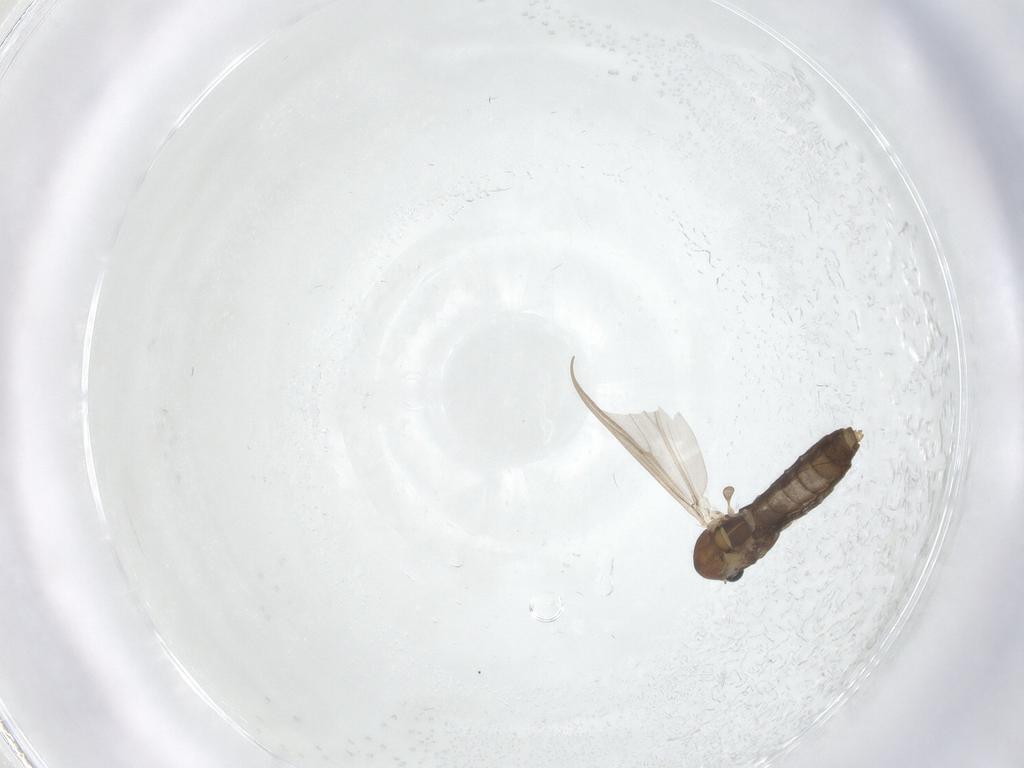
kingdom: Animalia
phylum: Arthropoda
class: Insecta
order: Diptera
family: Chironomidae
